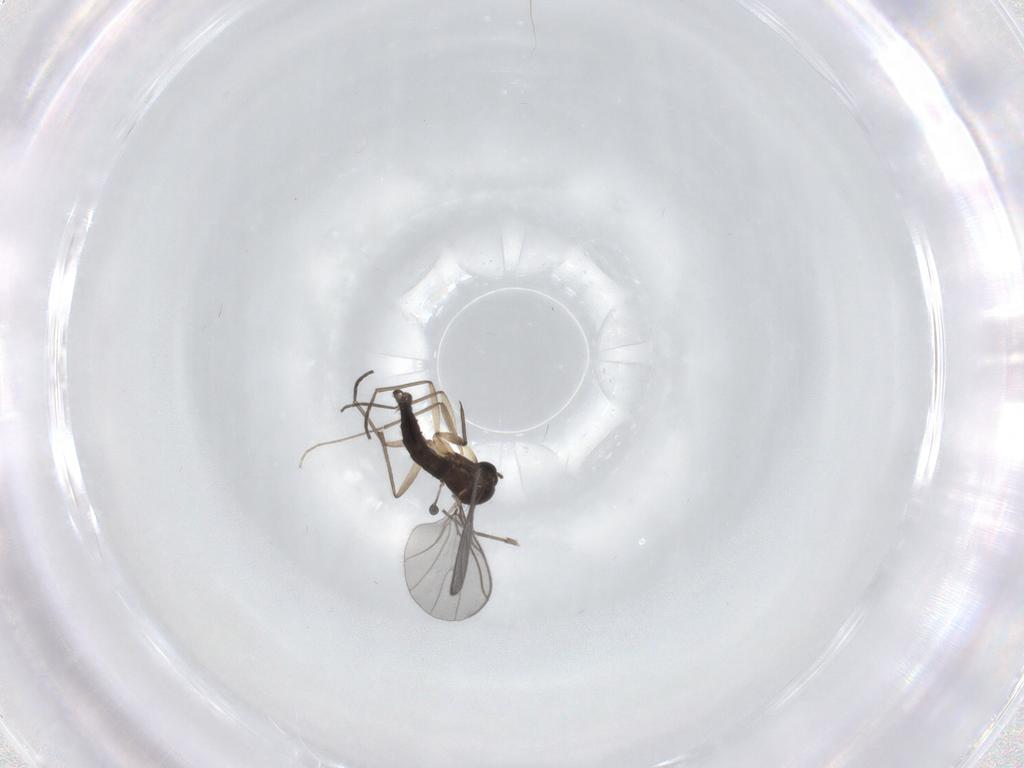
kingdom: Animalia
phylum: Arthropoda
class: Insecta
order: Diptera
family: Sciaridae
